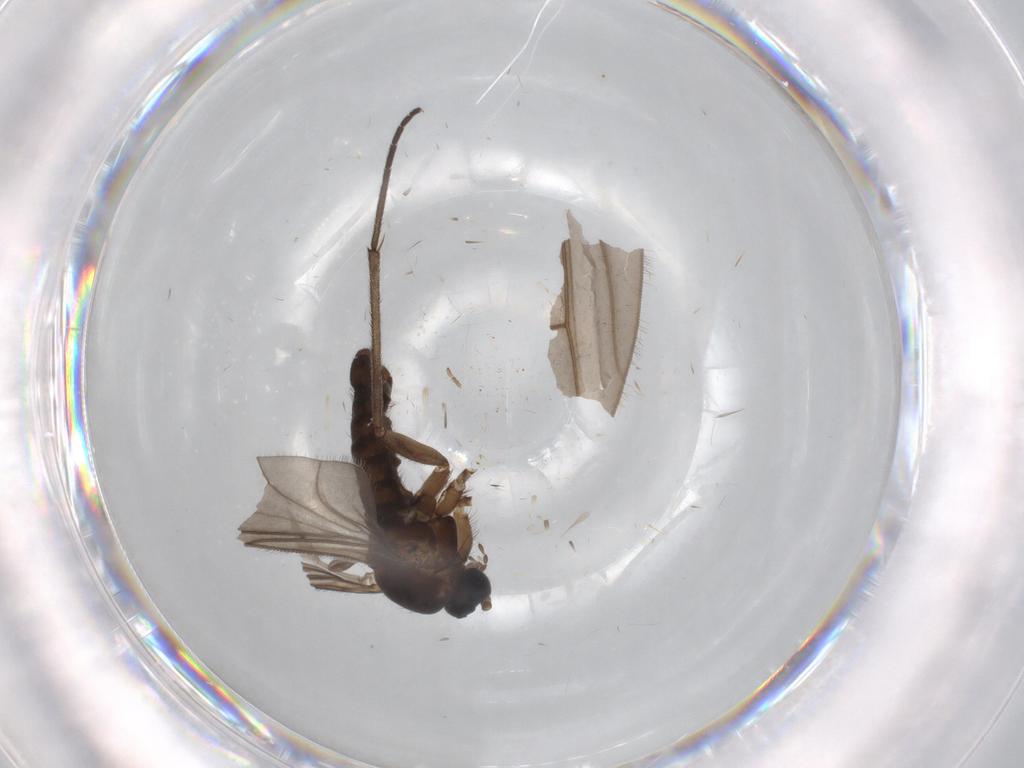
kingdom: Animalia
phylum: Arthropoda
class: Insecta
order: Diptera
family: Sciaridae
